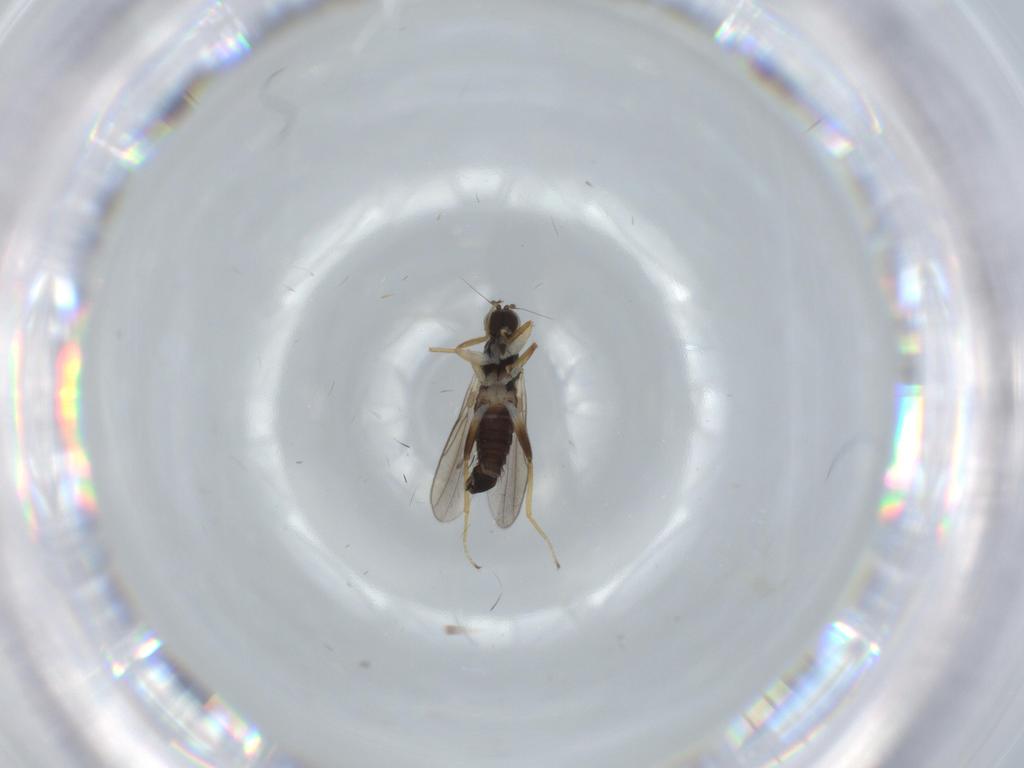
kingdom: Animalia
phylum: Arthropoda
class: Insecta
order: Diptera
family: Hybotidae
